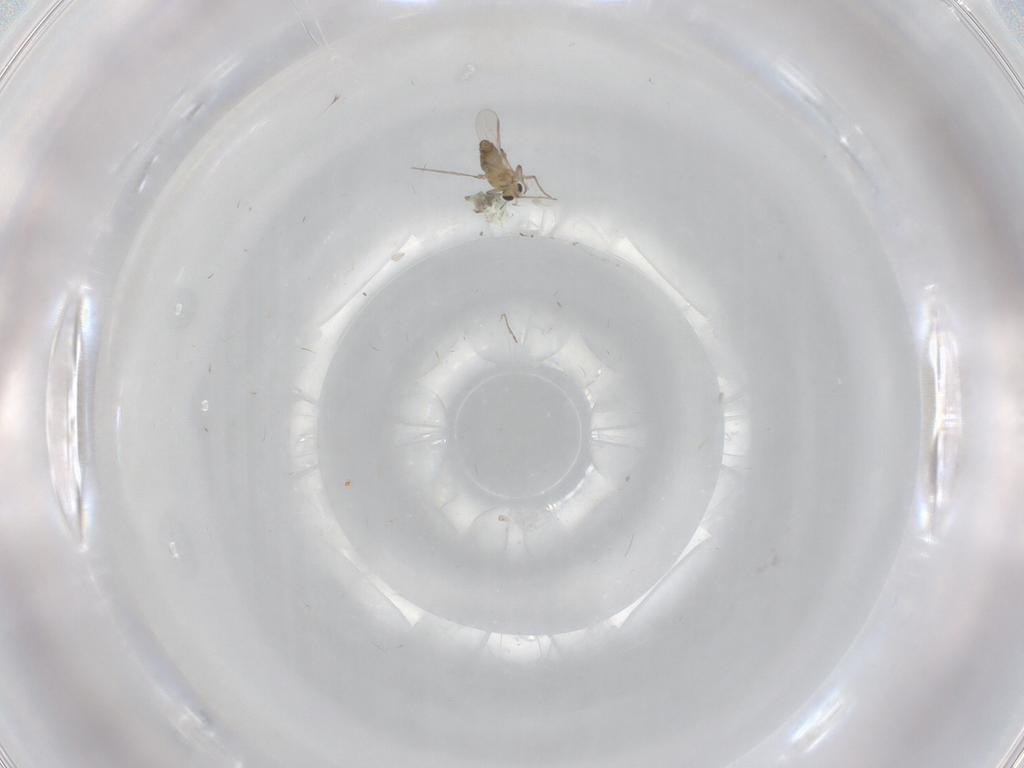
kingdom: Animalia
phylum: Arthropoda
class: Insecta
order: Diptera
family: Chironomidae
